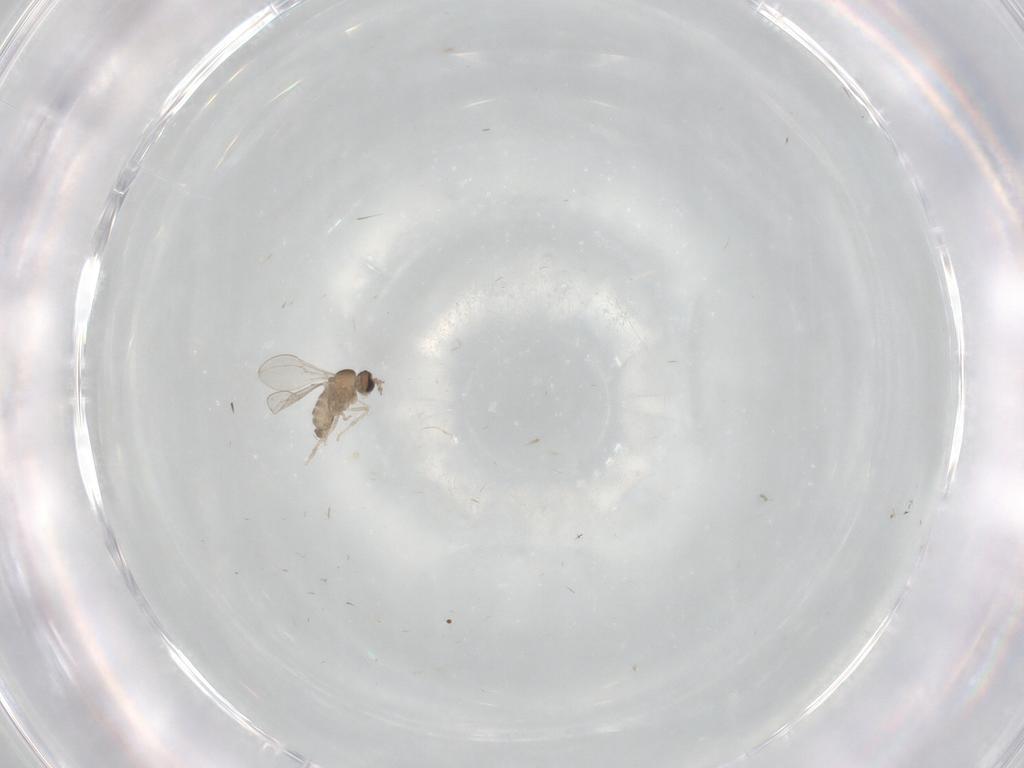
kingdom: Animalia
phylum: Arthropoda
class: Insecta
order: Diptera
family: Cecidomyiidae
